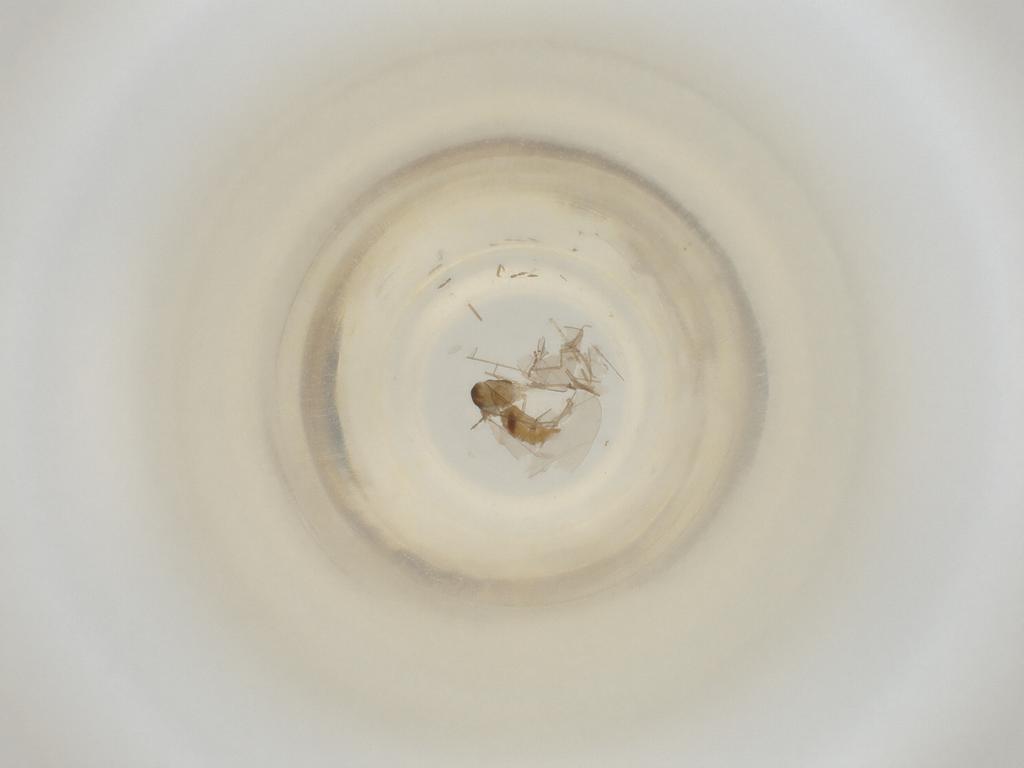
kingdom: Animalia
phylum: Arthropoda
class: Insecta
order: Diptera
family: Cecidomyiidae
